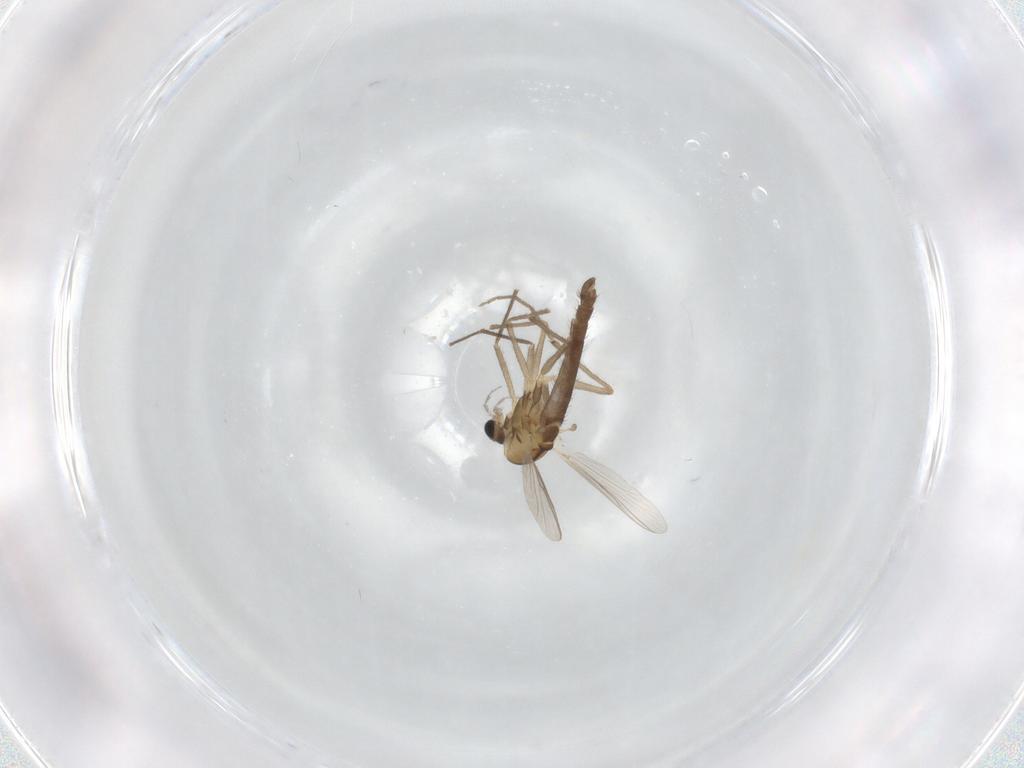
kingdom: Animalia
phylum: Arthropoda
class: Insecta
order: Diptera
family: Chironomidae
